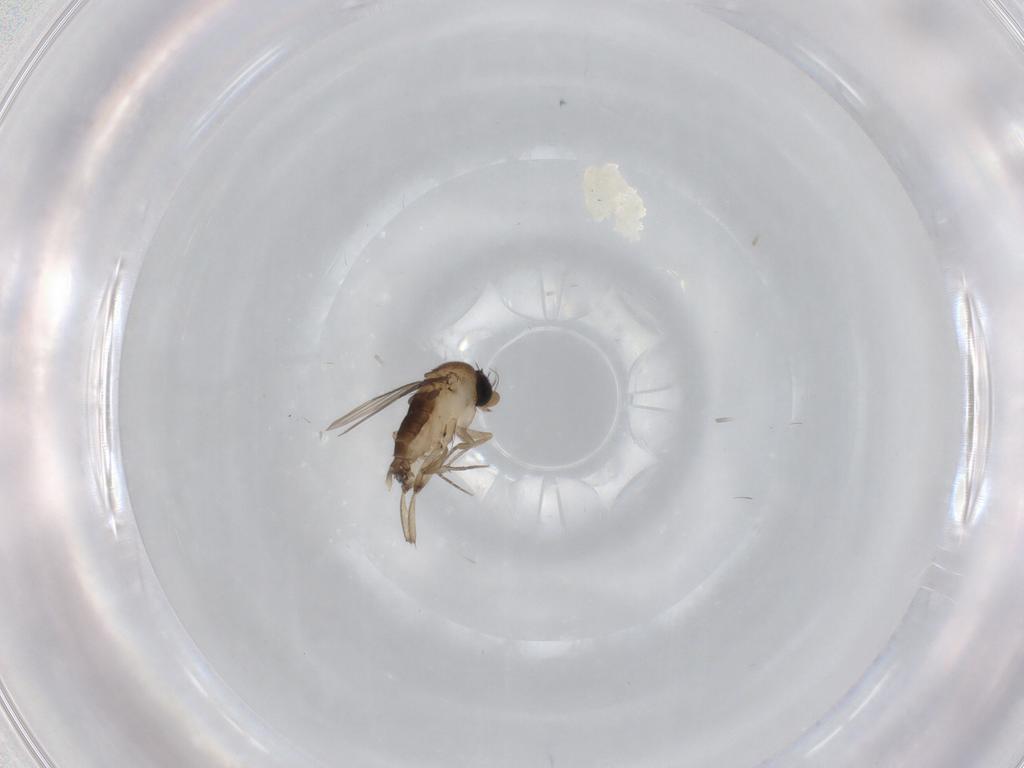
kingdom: Animalia
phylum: Arthropoda
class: Insecta
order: Diptera
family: Phoridae
